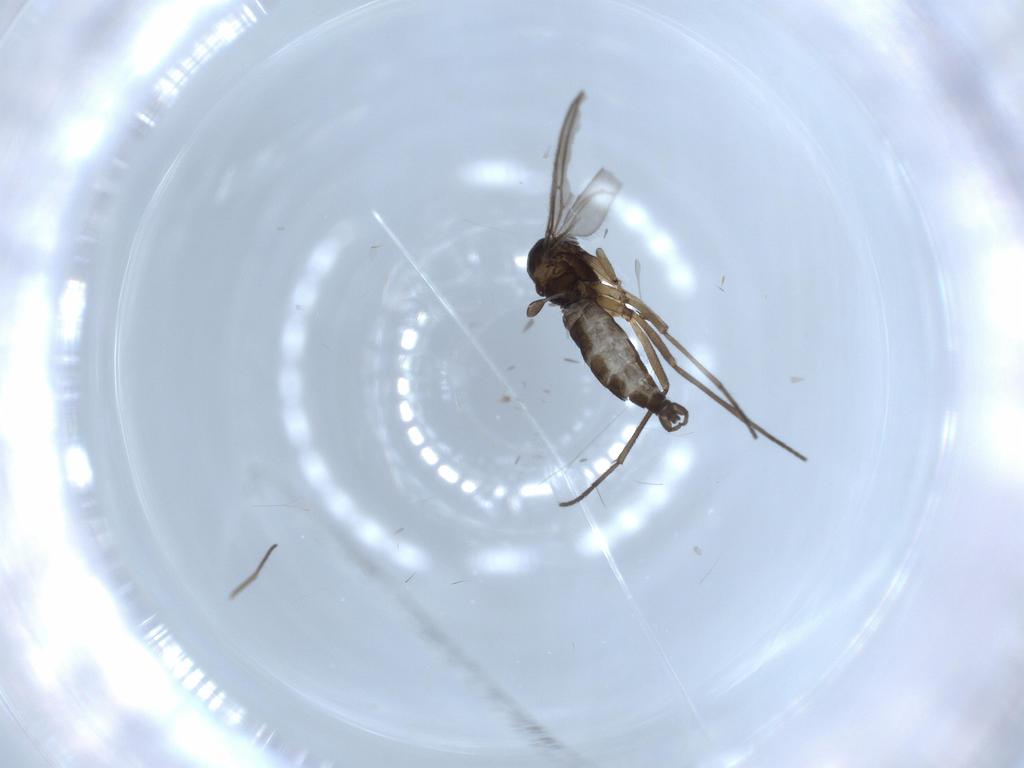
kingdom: Animalia
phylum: Arthropoda
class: Insecta
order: Diptera
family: Sciaridae
